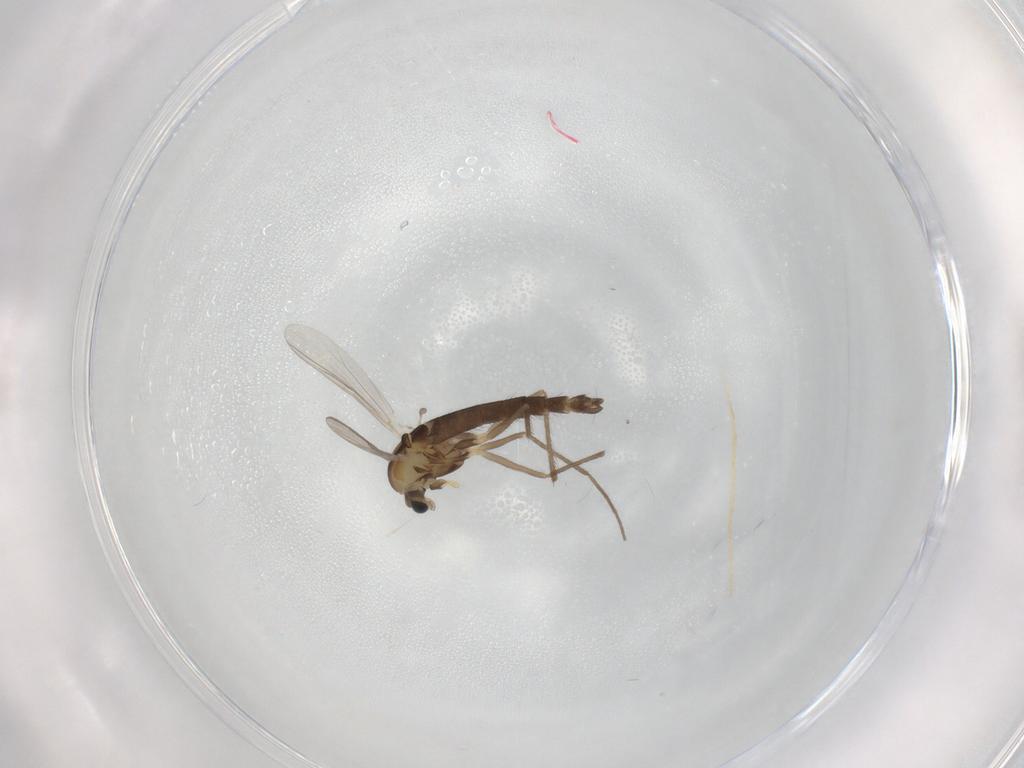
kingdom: Animalia
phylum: Arthropoda
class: Insecta
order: Diptera
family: Chironomidae
